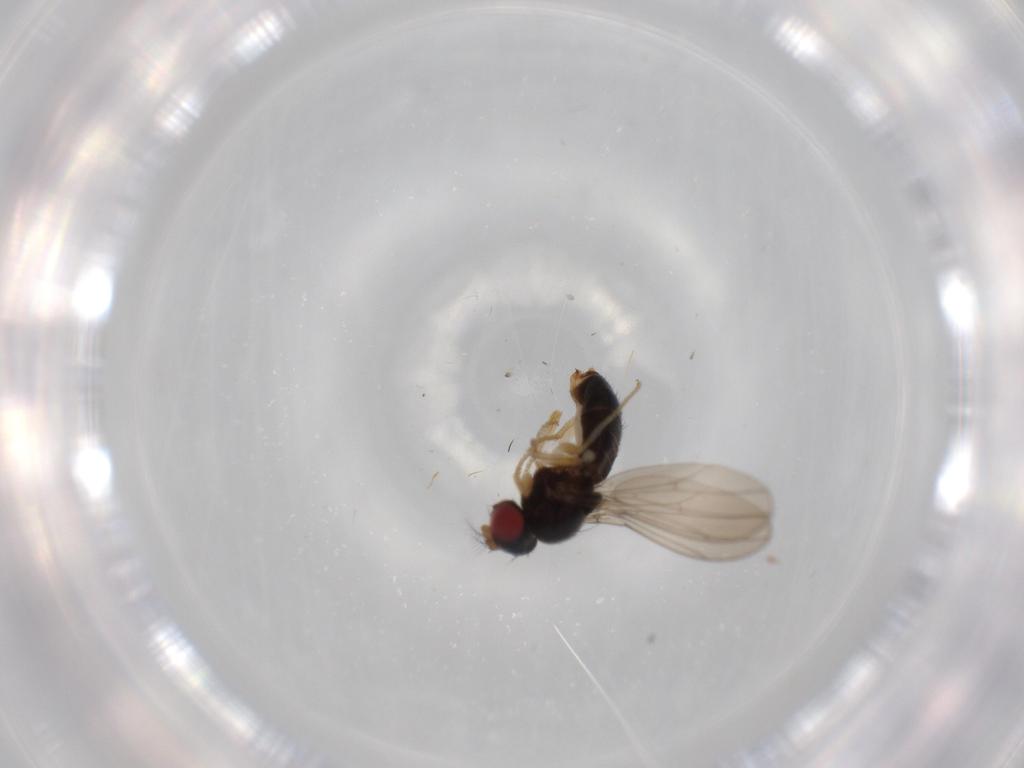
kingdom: Animalia
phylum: Arthropoda
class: Insecta
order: Diptera
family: Drosophilidae
